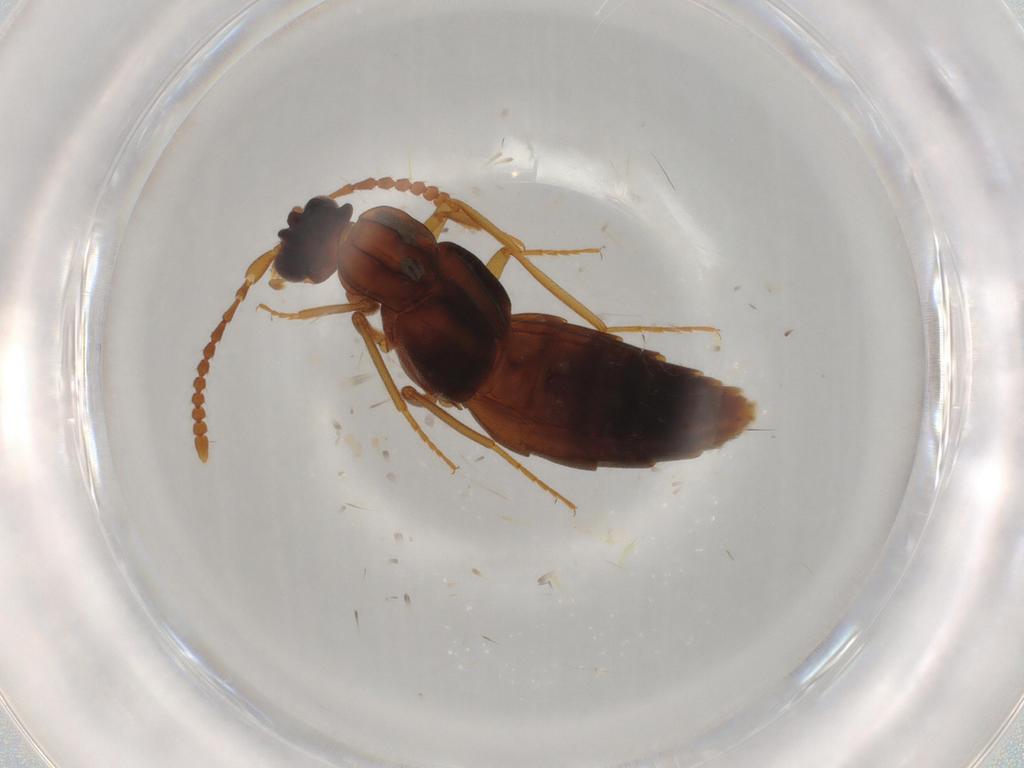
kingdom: Animalia
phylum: Arthropoda
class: Insecta
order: Coleoptera
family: Staphylinidae
